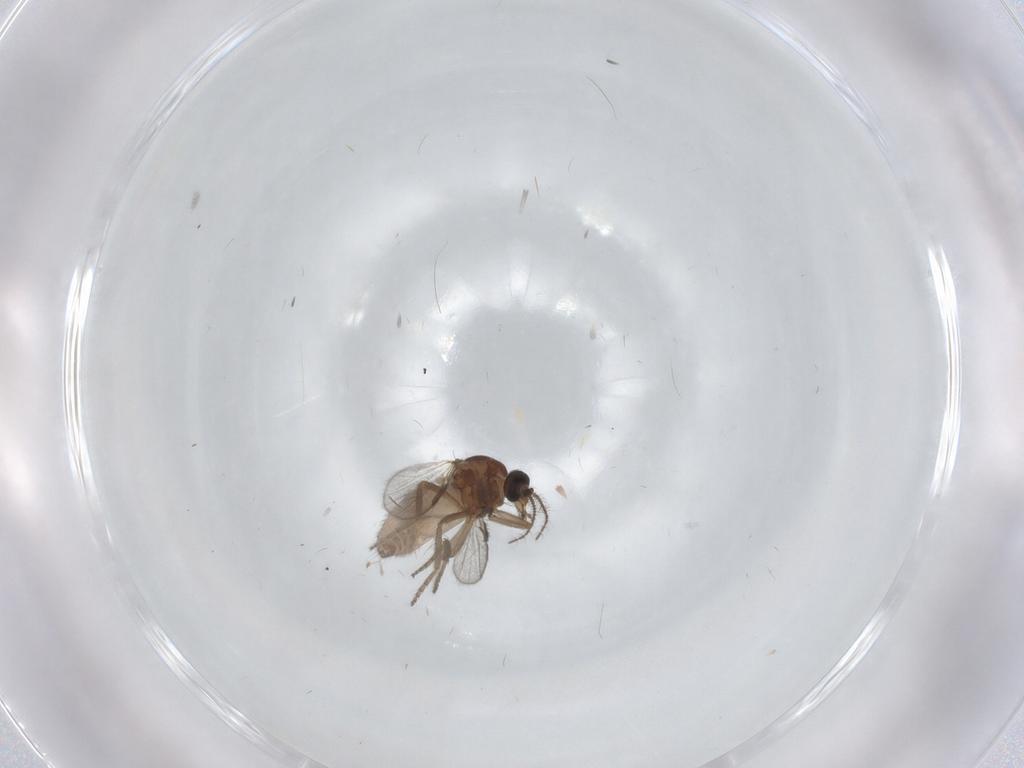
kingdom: Animalia
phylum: Arthropoda
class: Insecta
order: Diptera
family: Ceratopogonidae
